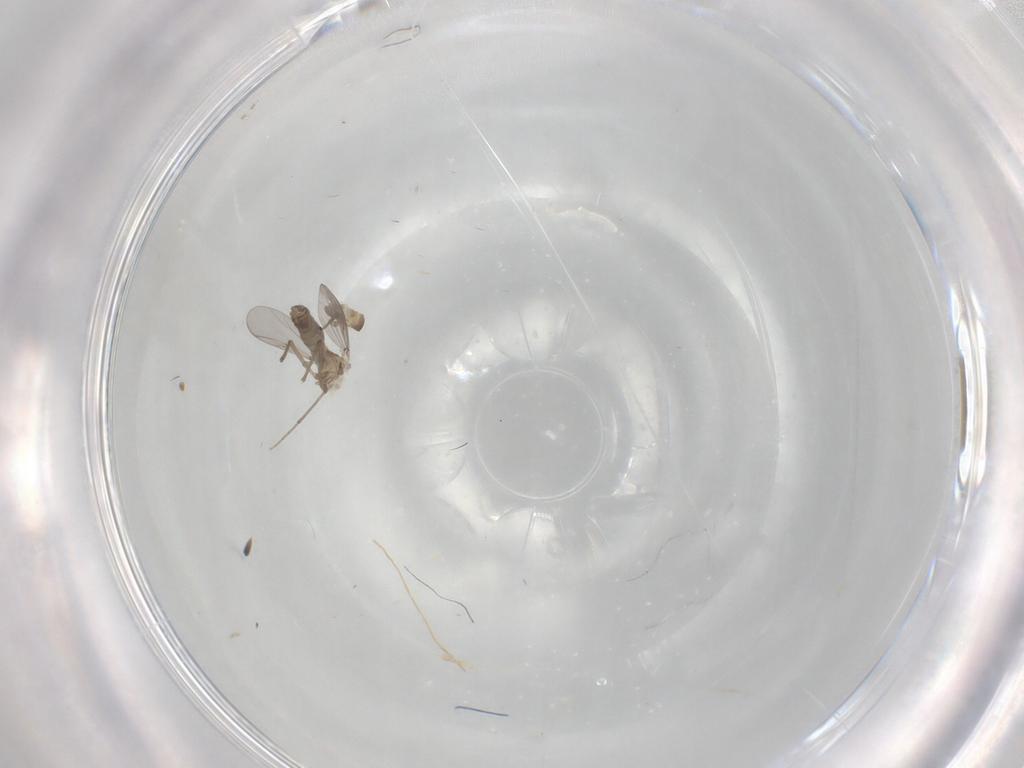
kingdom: Animalia
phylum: Arthropoda
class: Insecta
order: Diptera
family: Chironomidae
